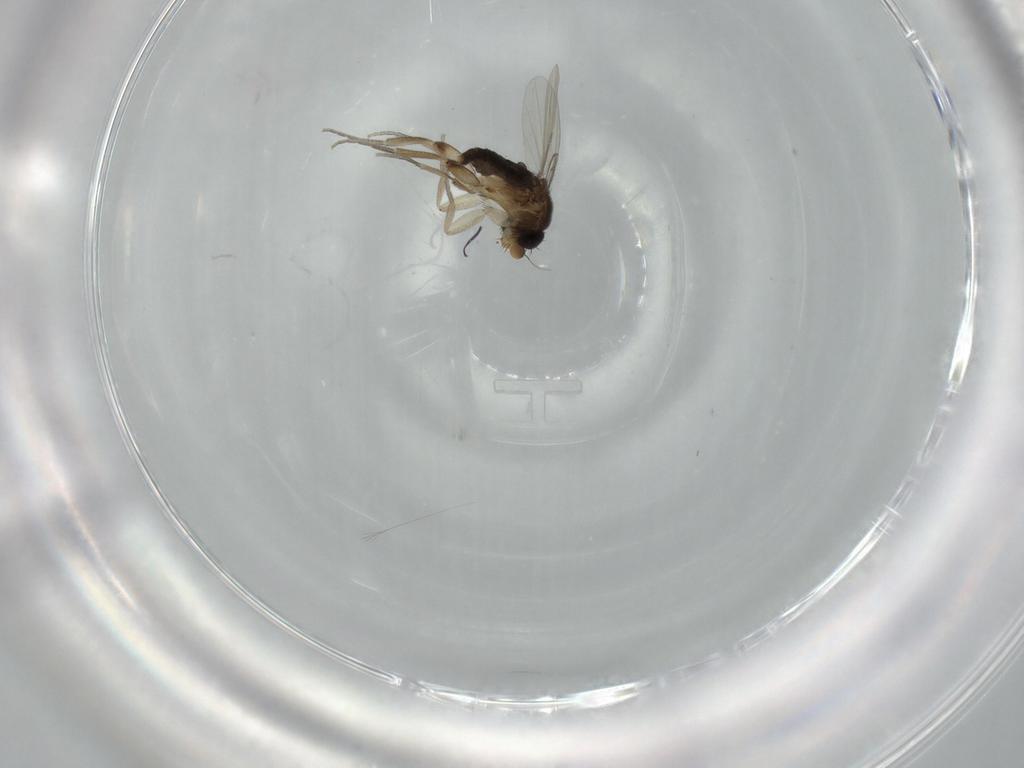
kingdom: Animalia
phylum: Arthropoda
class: Insecta
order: Diptera
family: Phoridae
